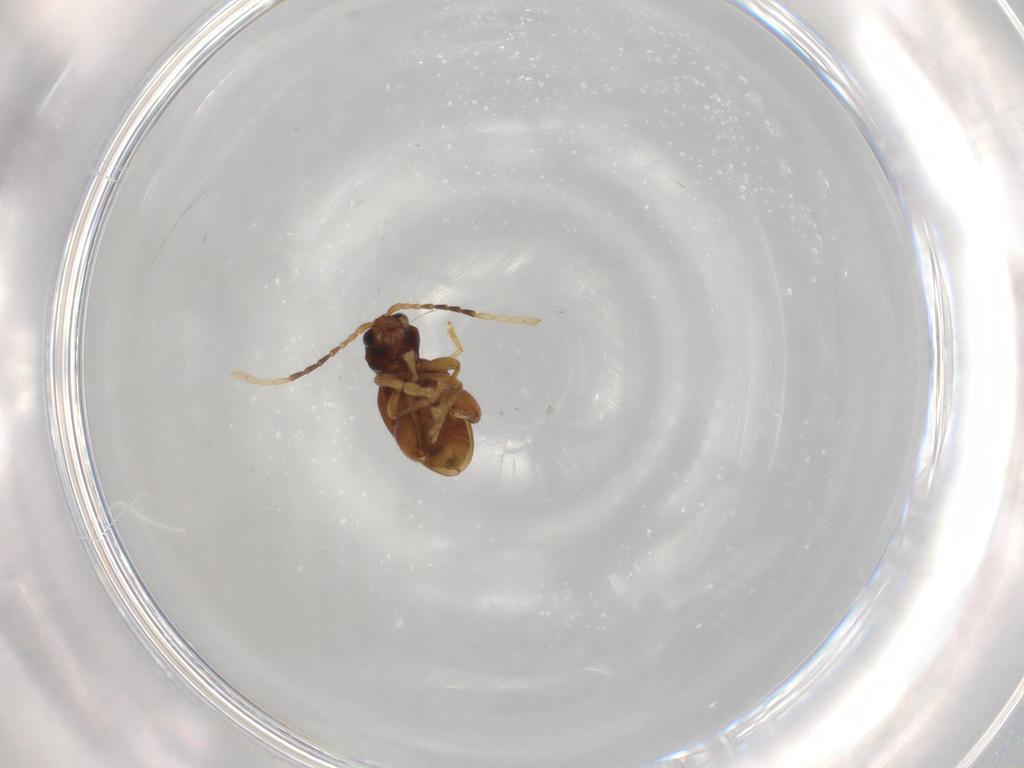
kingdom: Animalia
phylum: Arthropoda
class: Insecta
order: Coleoptera
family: Chrysomelidae
